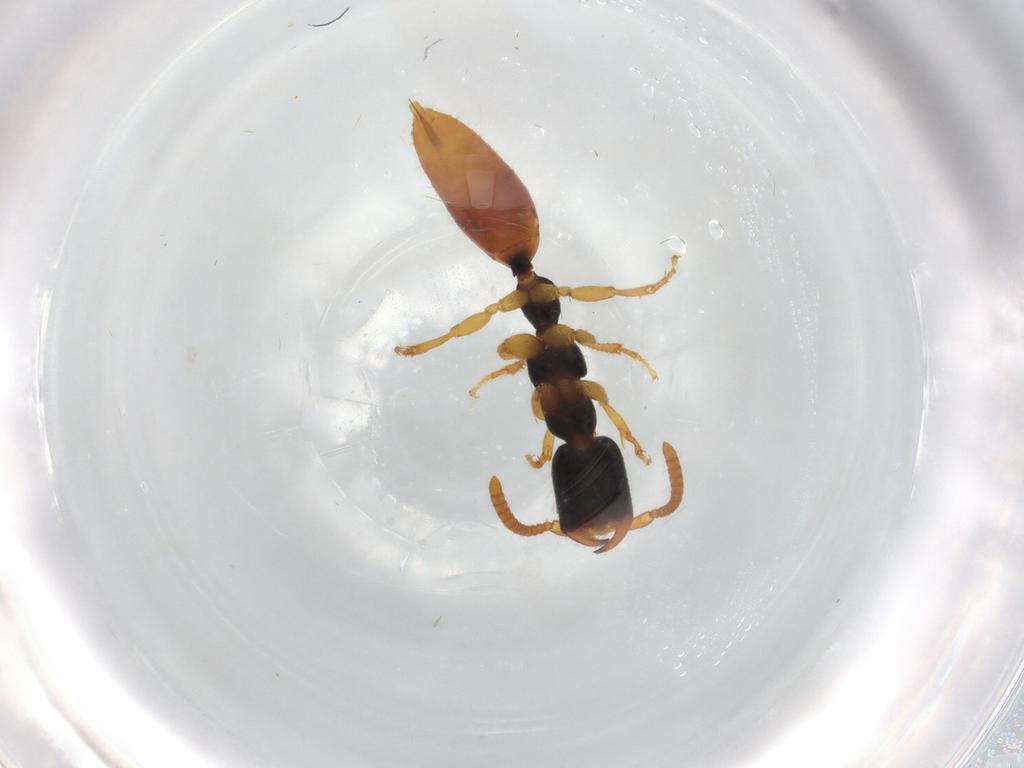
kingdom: Animalia
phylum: Arthropoda
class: Insecta
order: Hymenoptera
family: Bethylidae
